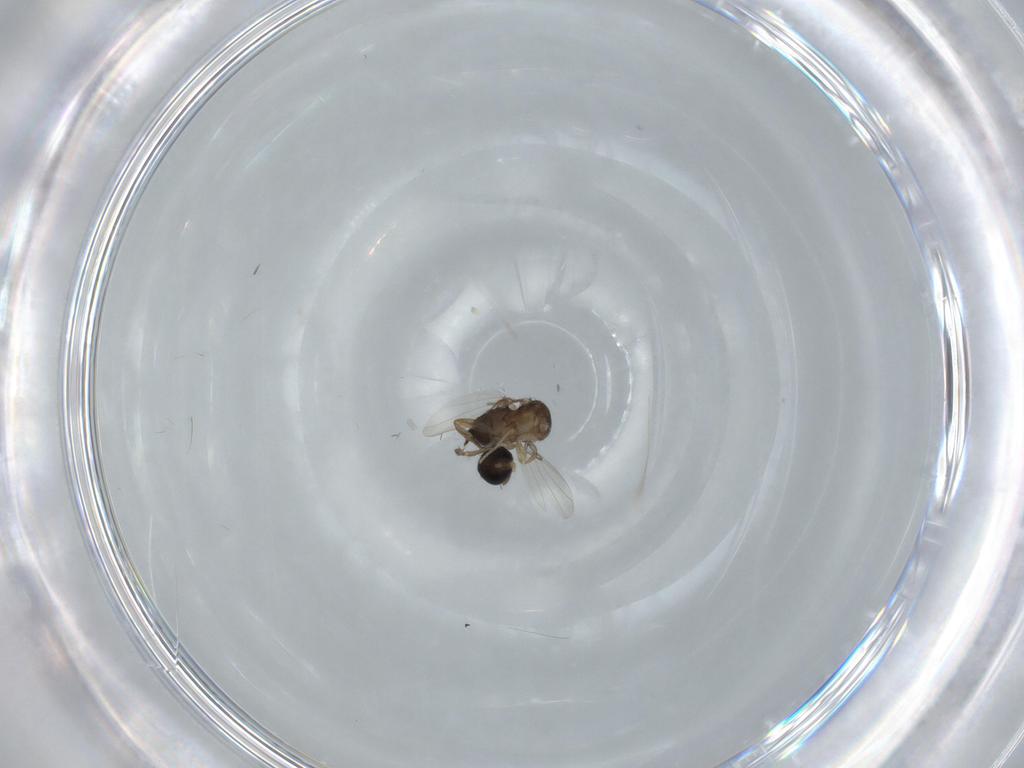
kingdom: Animalia
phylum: Arthropoda
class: Insecta
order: Diptera
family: Phoridae
